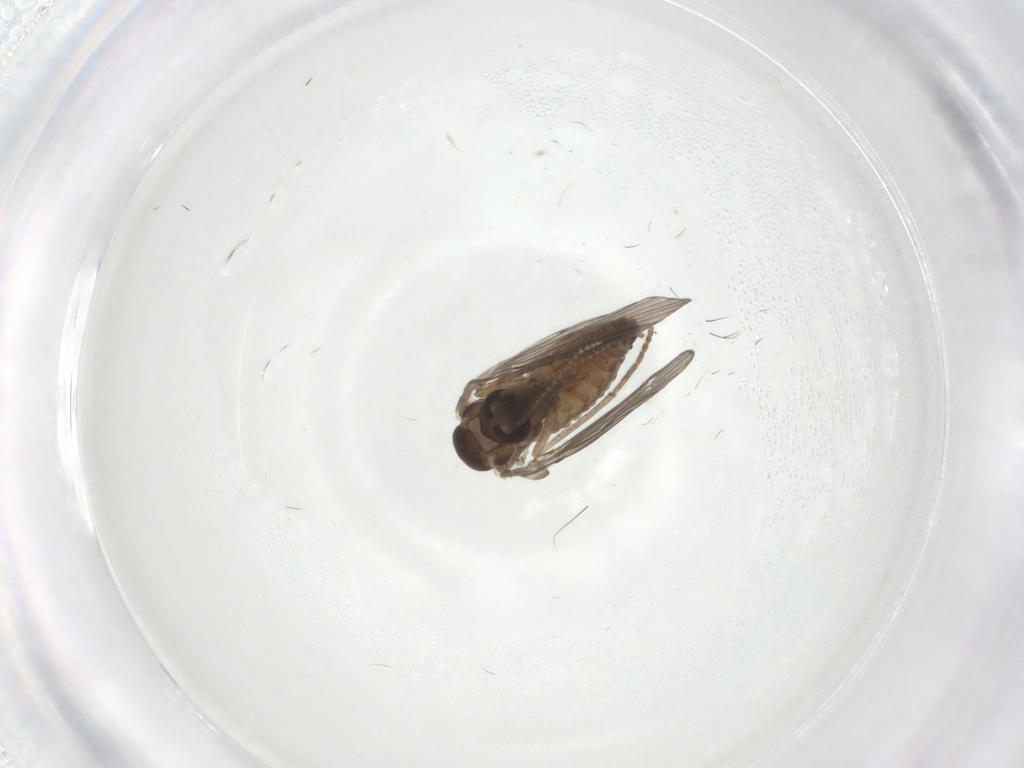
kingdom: Animalia
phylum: Arthropoda
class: Insecta
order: Diptera
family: Psychodidae
